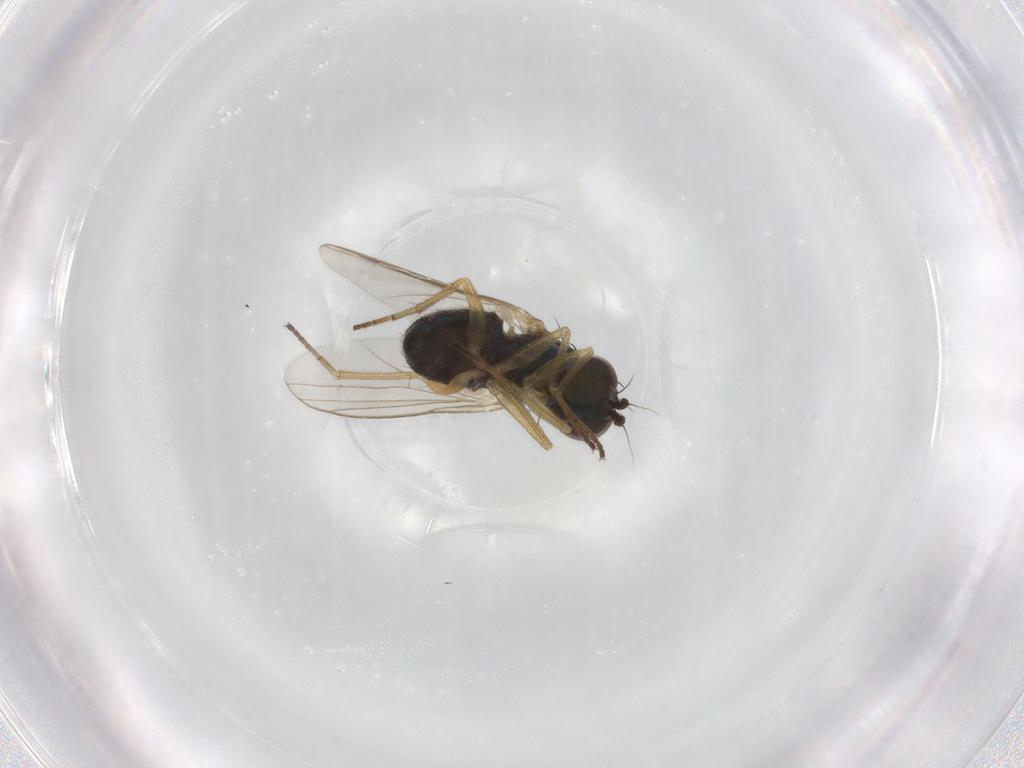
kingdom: Animalia
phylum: Arthropoda
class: Insecta
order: Diptera
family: Dolichopodidae
